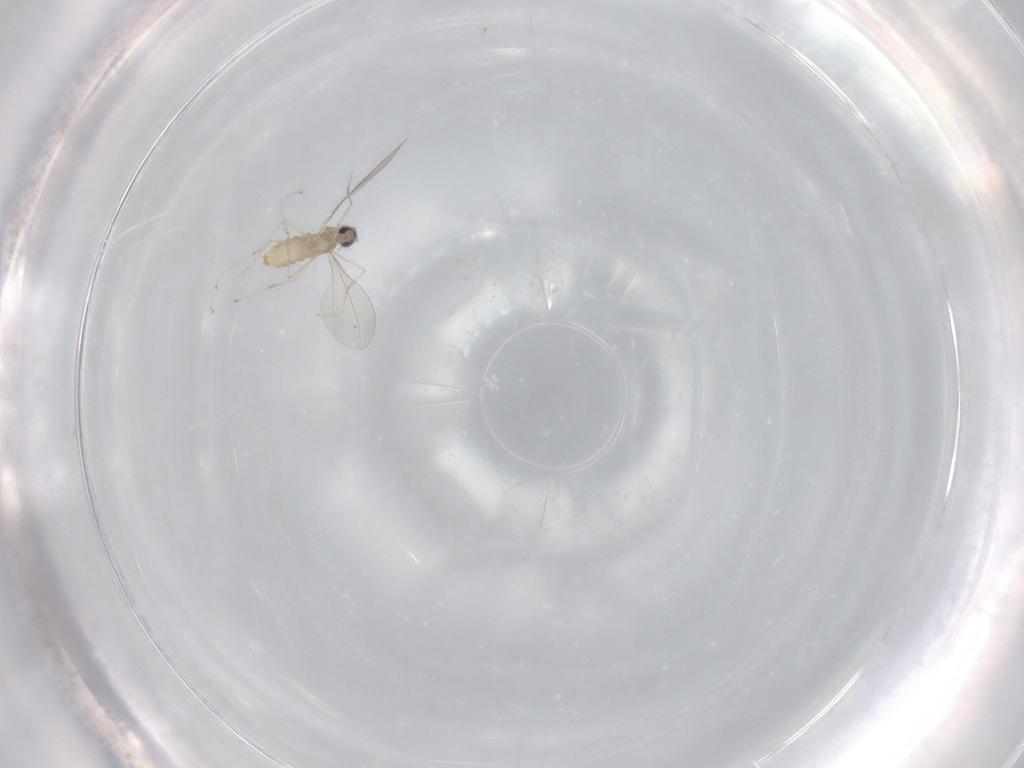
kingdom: Animalia
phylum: Arthropoda
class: Insecta
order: Diptera
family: Cecidomyiidae
